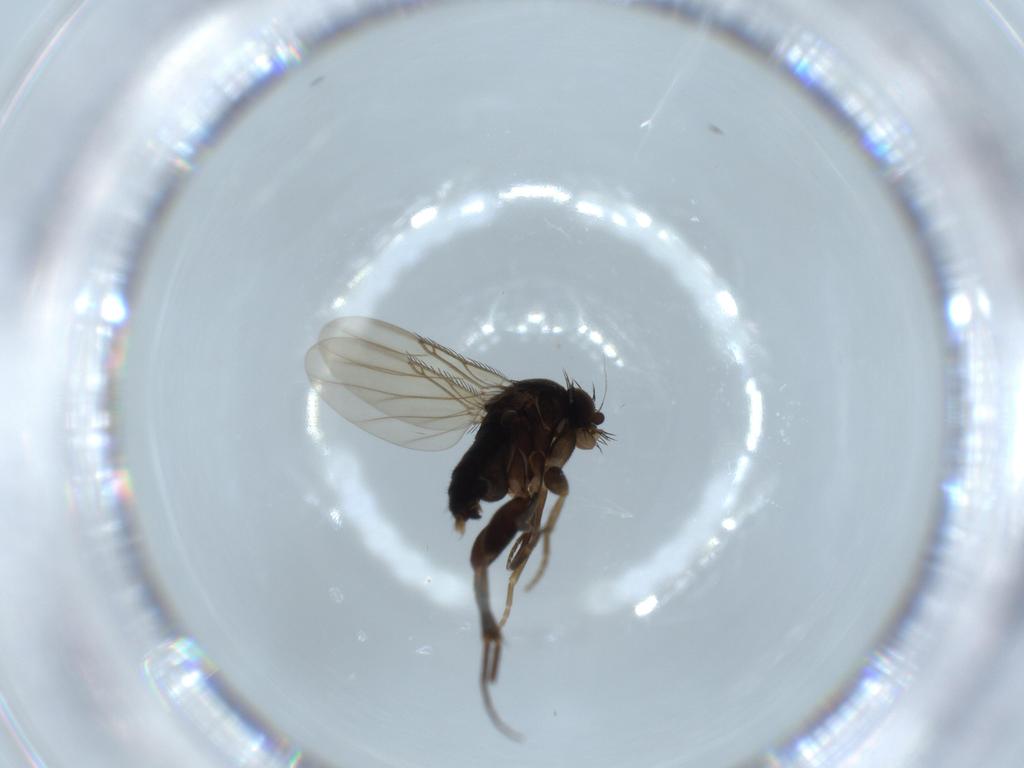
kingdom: Animalia
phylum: Arthropoda
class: Insecta
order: Diptera
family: Phoridae
